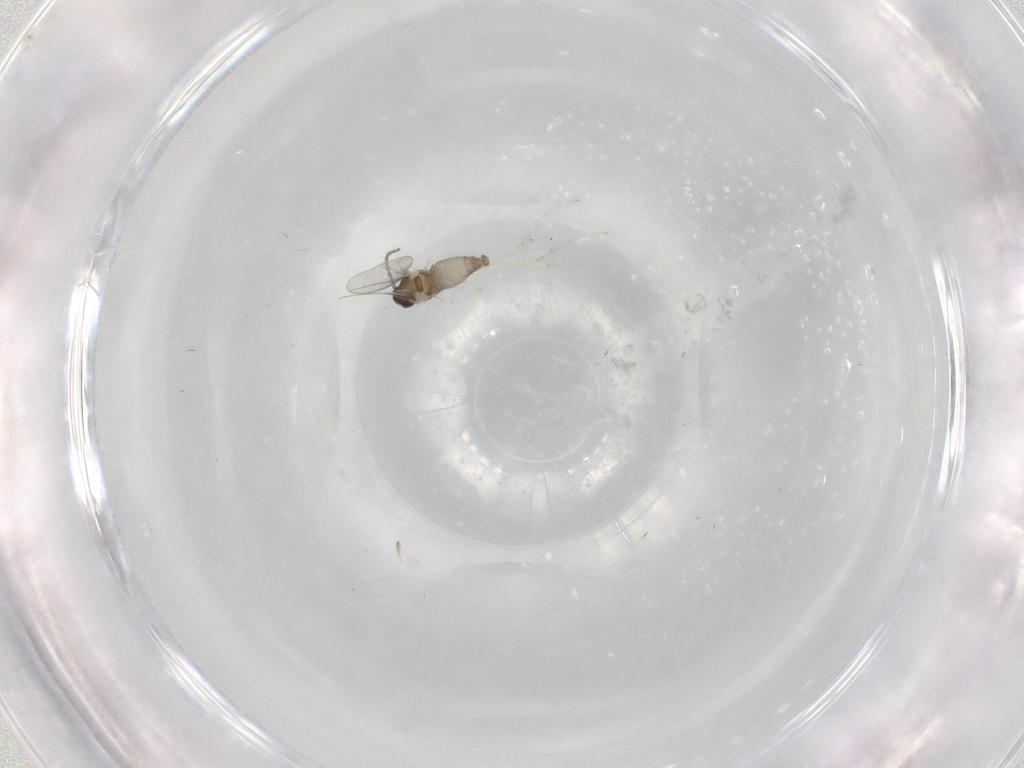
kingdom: Animalia
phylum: Arthropoda
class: Insecta
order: Diptera
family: Cecidomyiidae
